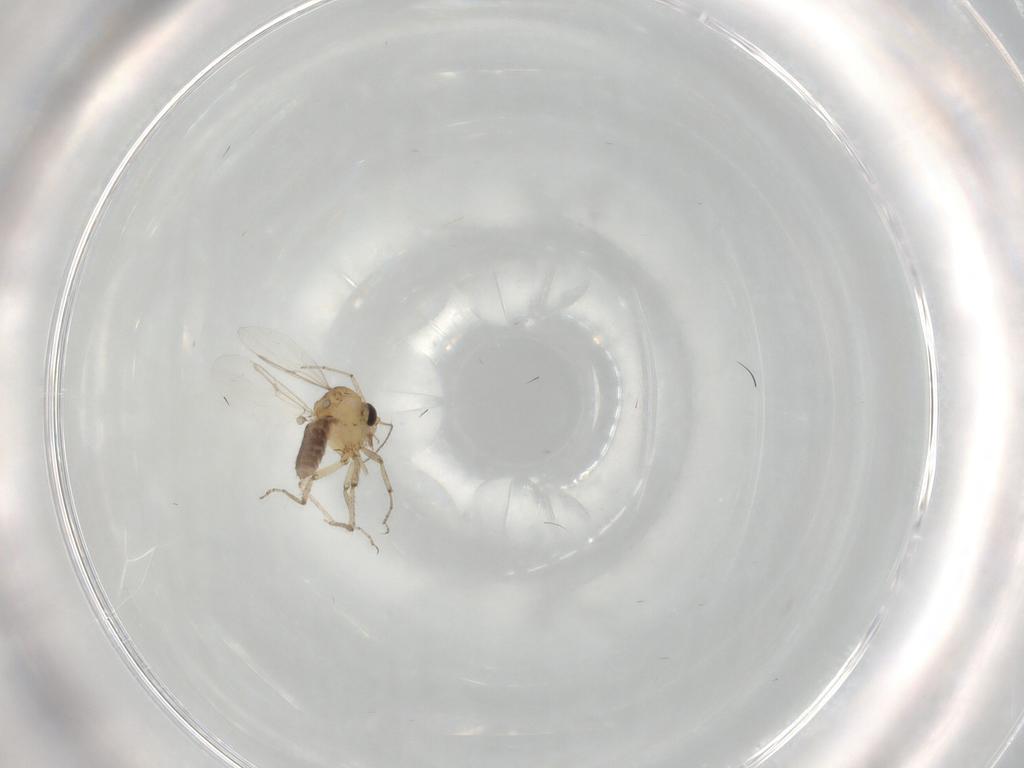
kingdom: Animalia
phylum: Arthropoda
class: Insecta
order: Diptera
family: Ceratopogonidae
